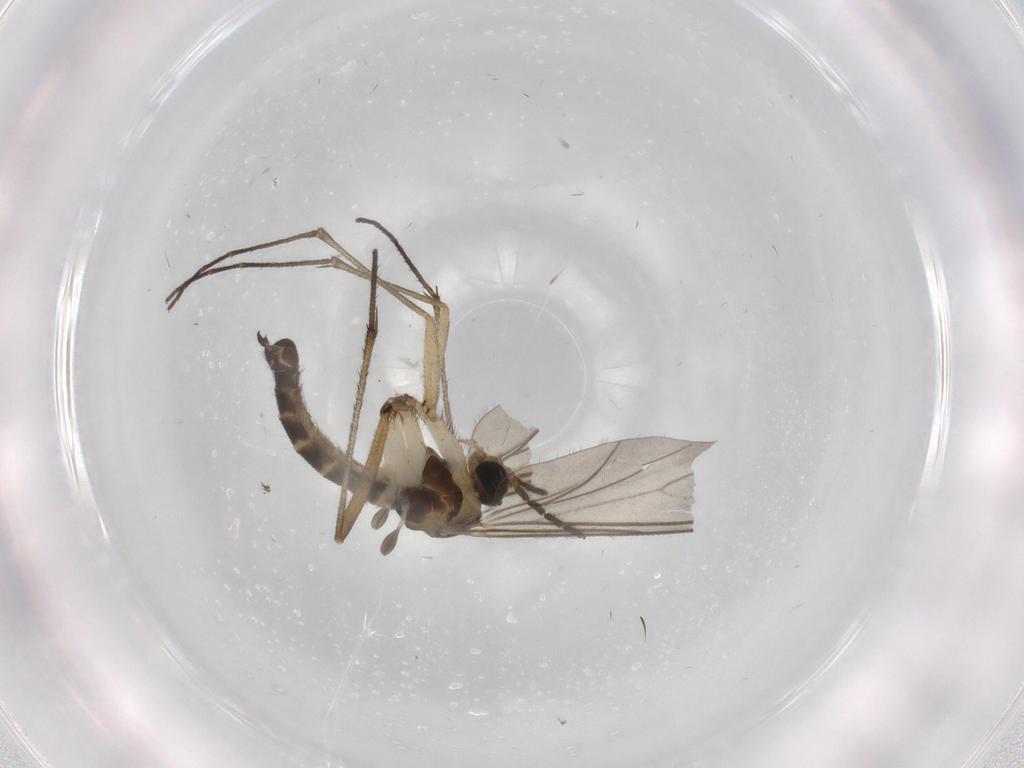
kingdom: Animalia
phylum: Arthropoda
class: Insecta
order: Diptera
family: Sciaridae
